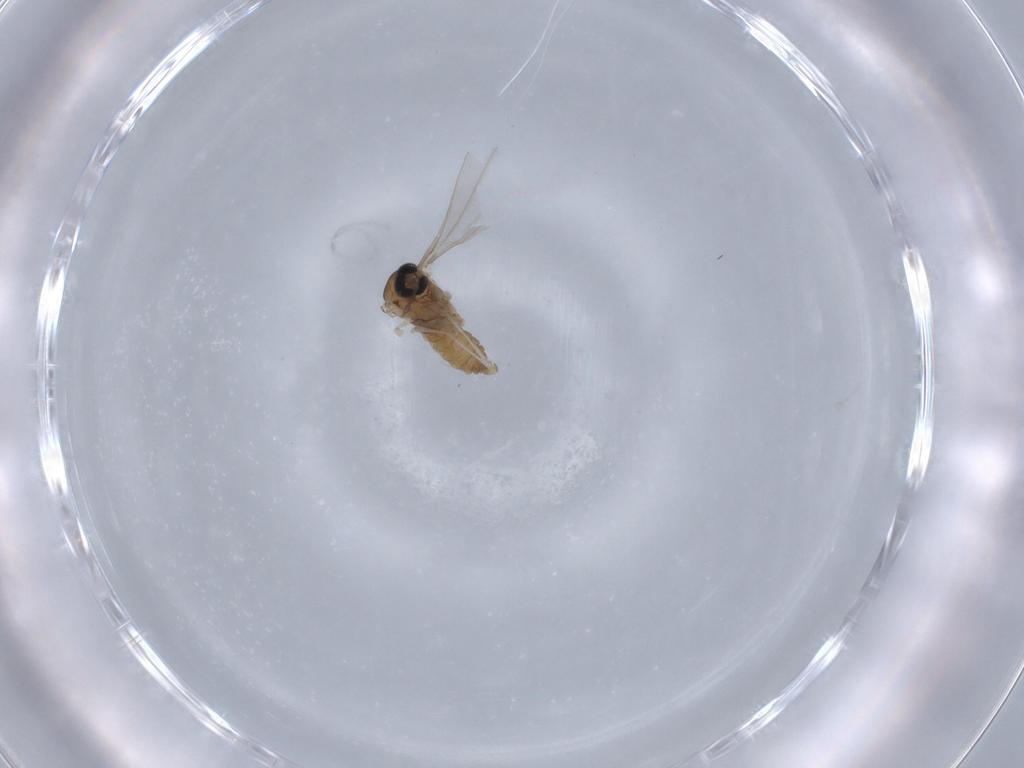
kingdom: Animalia
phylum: Arthropoda
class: Insecta
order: Diptera
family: Cecidomyiidae
